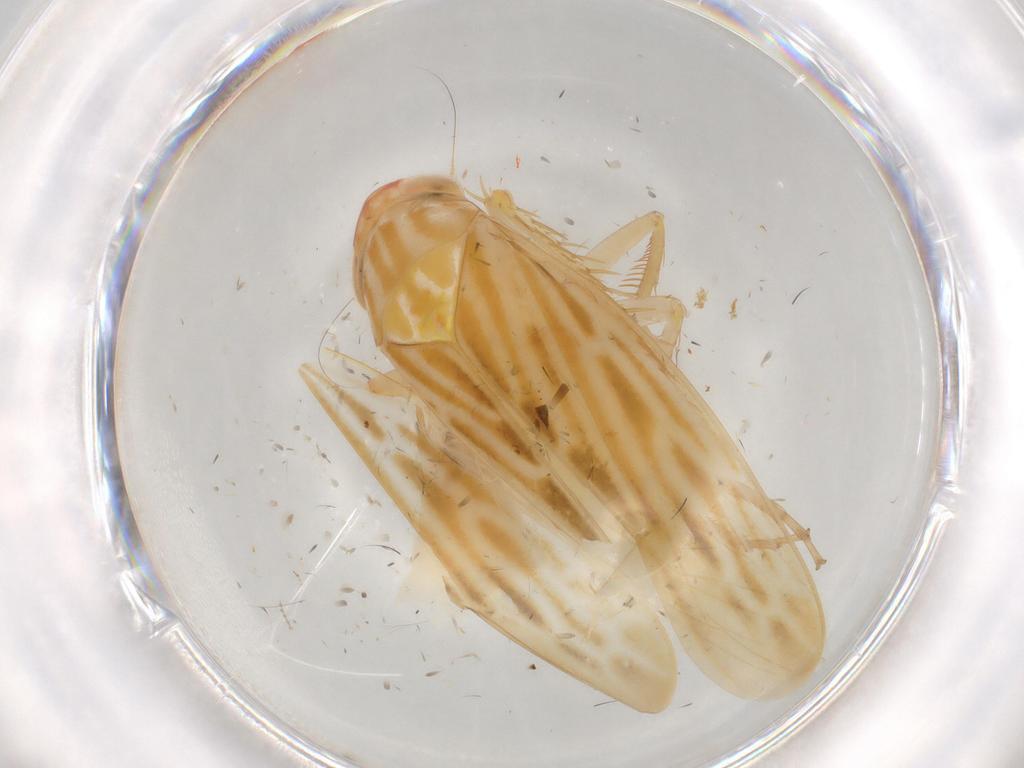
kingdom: Animalia
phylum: Arthropoda
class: Insecta
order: Hemiptera
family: Cicadellidae
